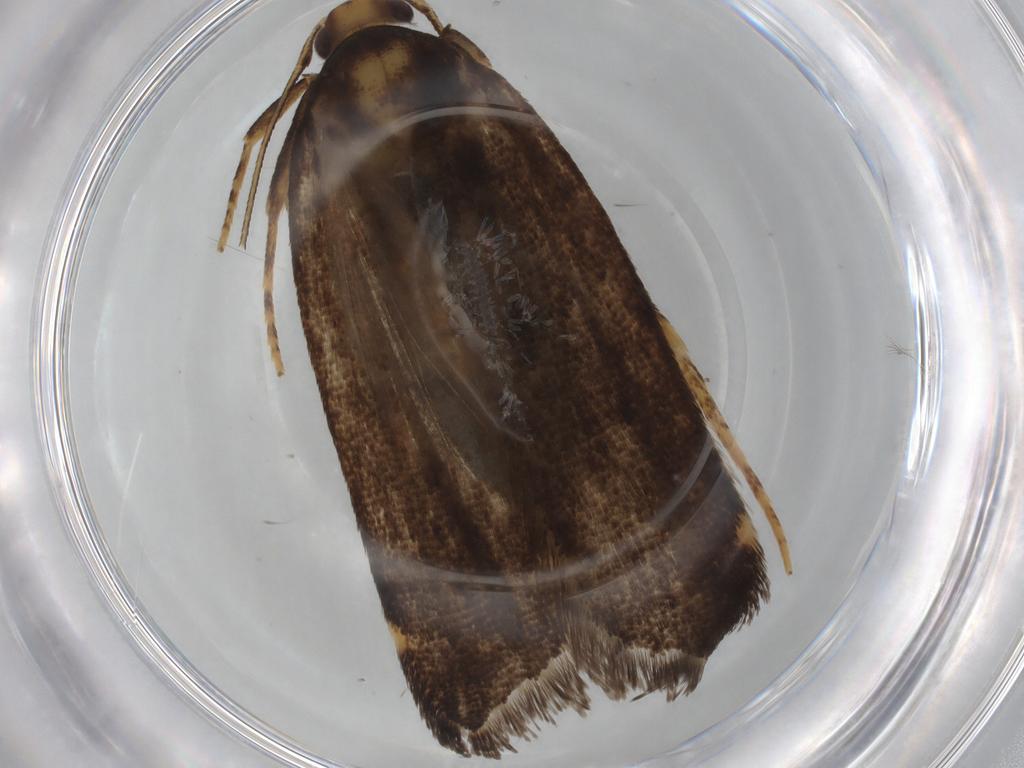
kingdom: Animalia
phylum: Arthropoda
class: Insecta
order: Lepidoptera
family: Lecithoceridae
